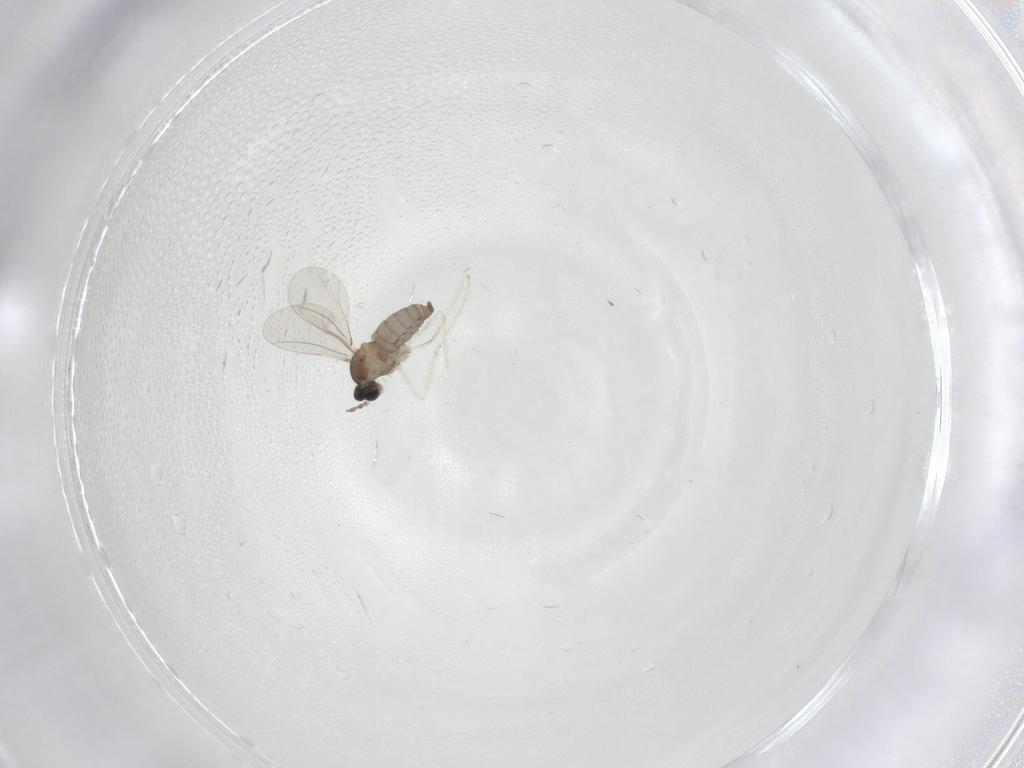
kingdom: Animalia
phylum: Arthropoda
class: Insecta
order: Diptera
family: Cecidomyiidae
